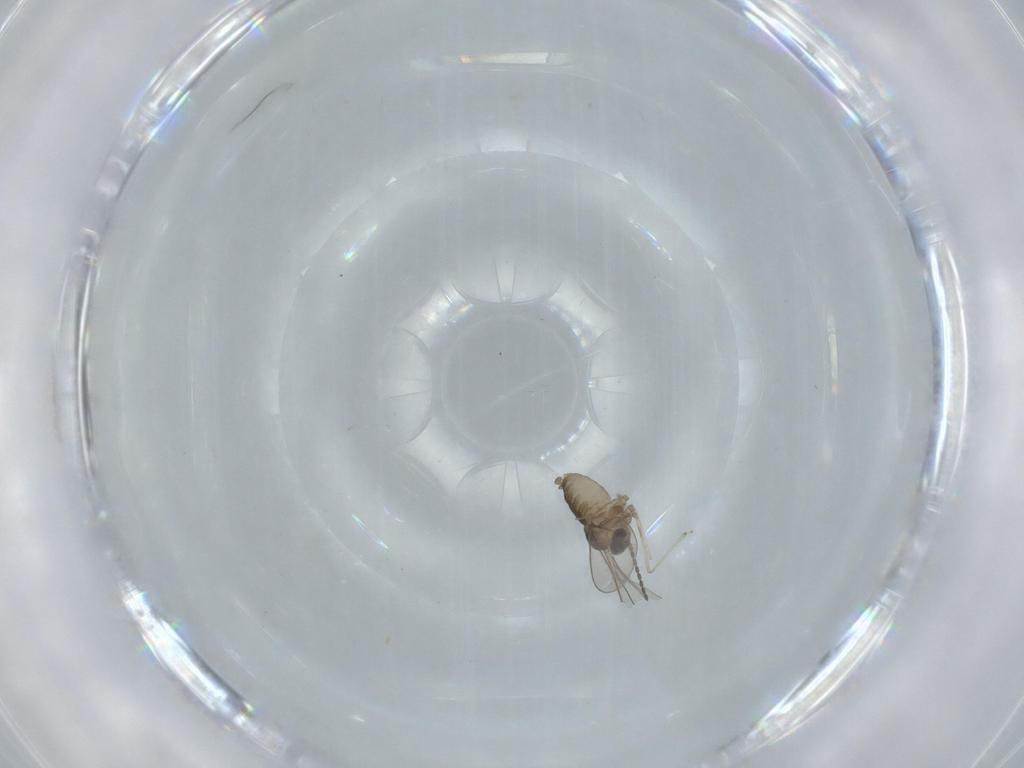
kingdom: Animalia
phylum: Arthropoda
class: Insecta
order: Diptera
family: Cecidomyiidae
